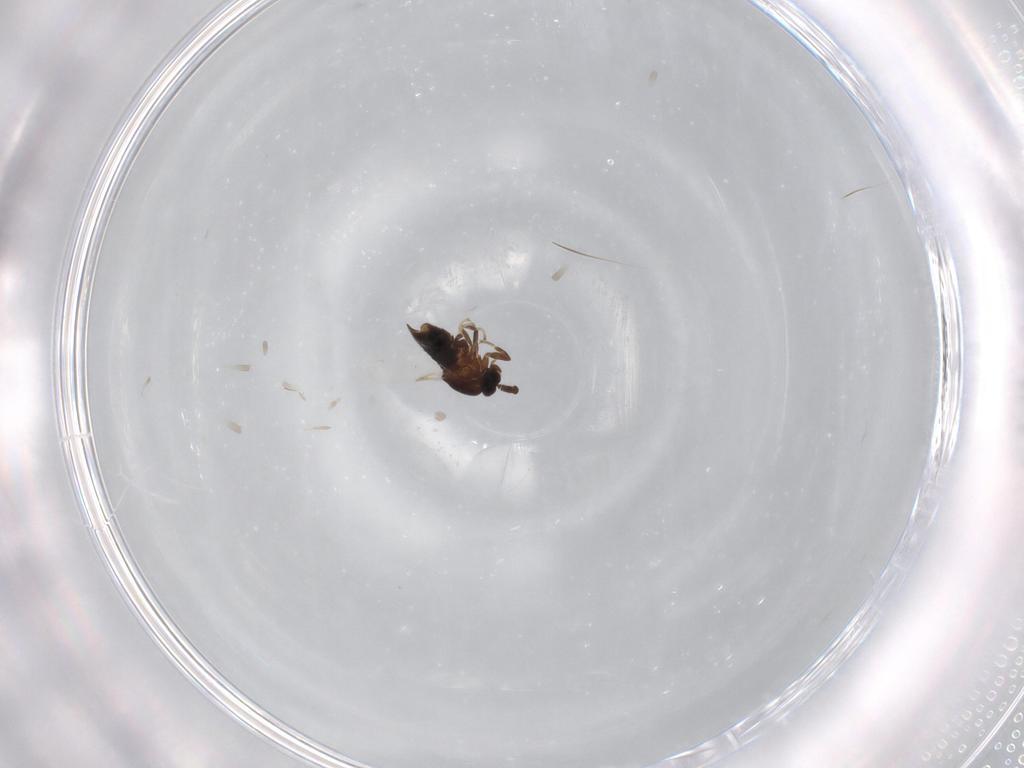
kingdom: Animalia
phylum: Arthropoda
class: Insecta
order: Diptera
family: Scatopsidae
